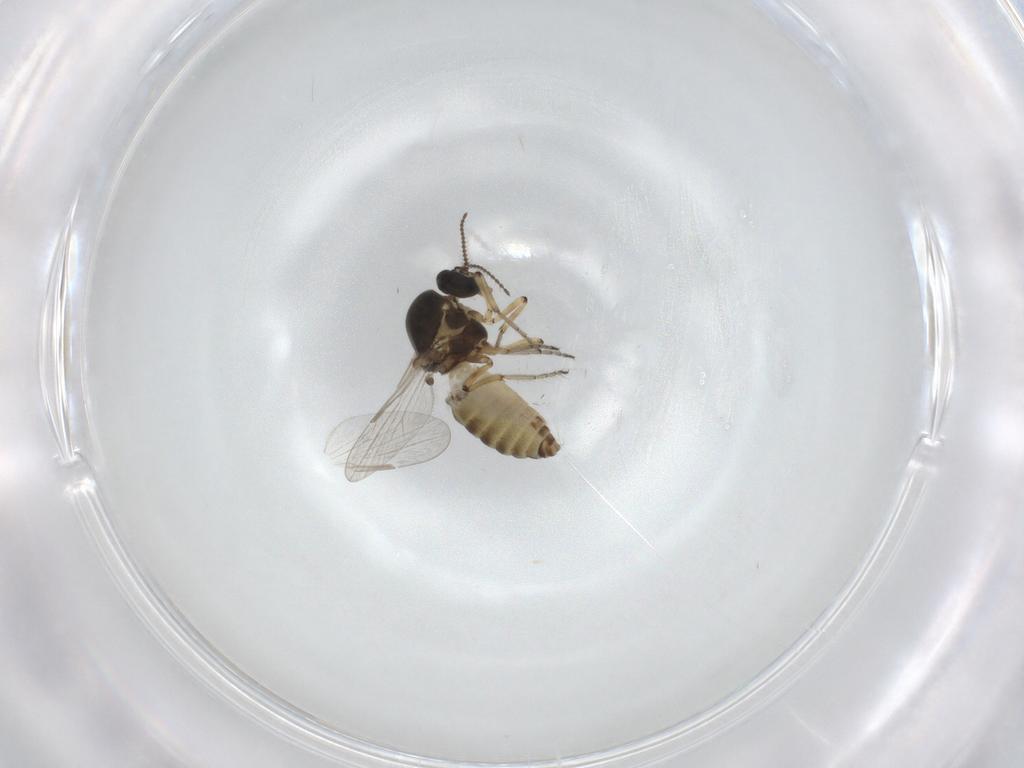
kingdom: Animalia
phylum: Arthropoda
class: Insecta
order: Diptera
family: Ceratopogonidae
